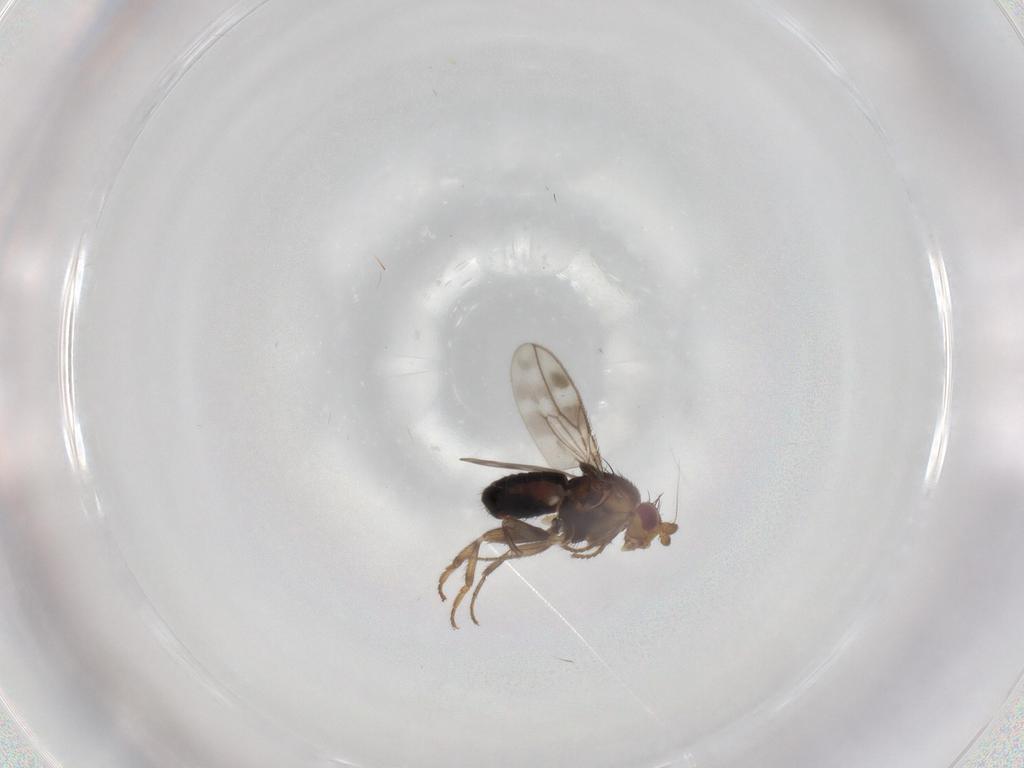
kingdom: Animalia
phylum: Arthropoda
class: Insecta
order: Diptera
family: Sphaeroceridae
